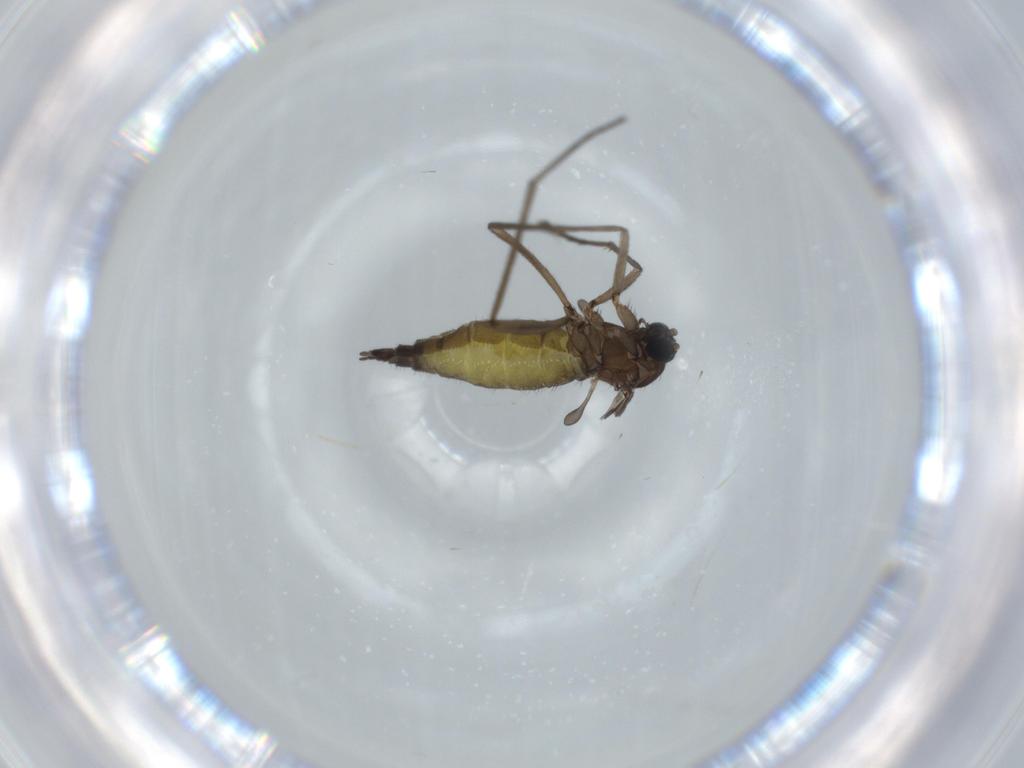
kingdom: Animalia
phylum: Arthropoda
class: Insecta
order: Diptera
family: Sciaridae
